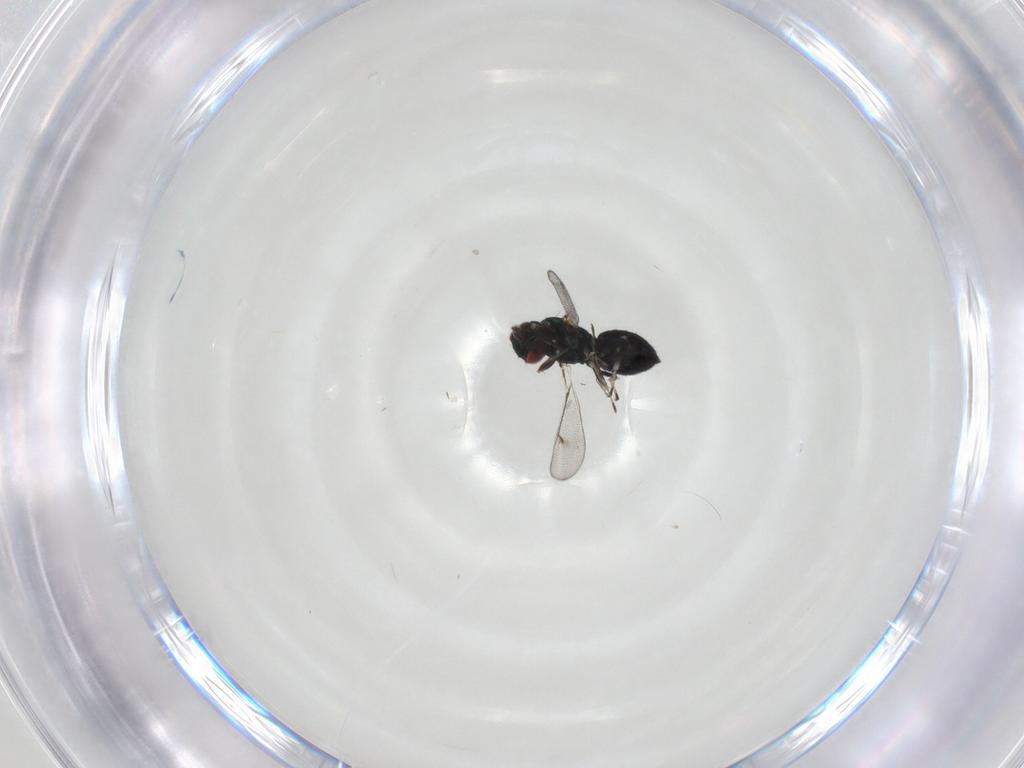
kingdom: Animalia
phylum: Arthropoda
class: Insecta
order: Hymenoptera
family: Eulophidae
